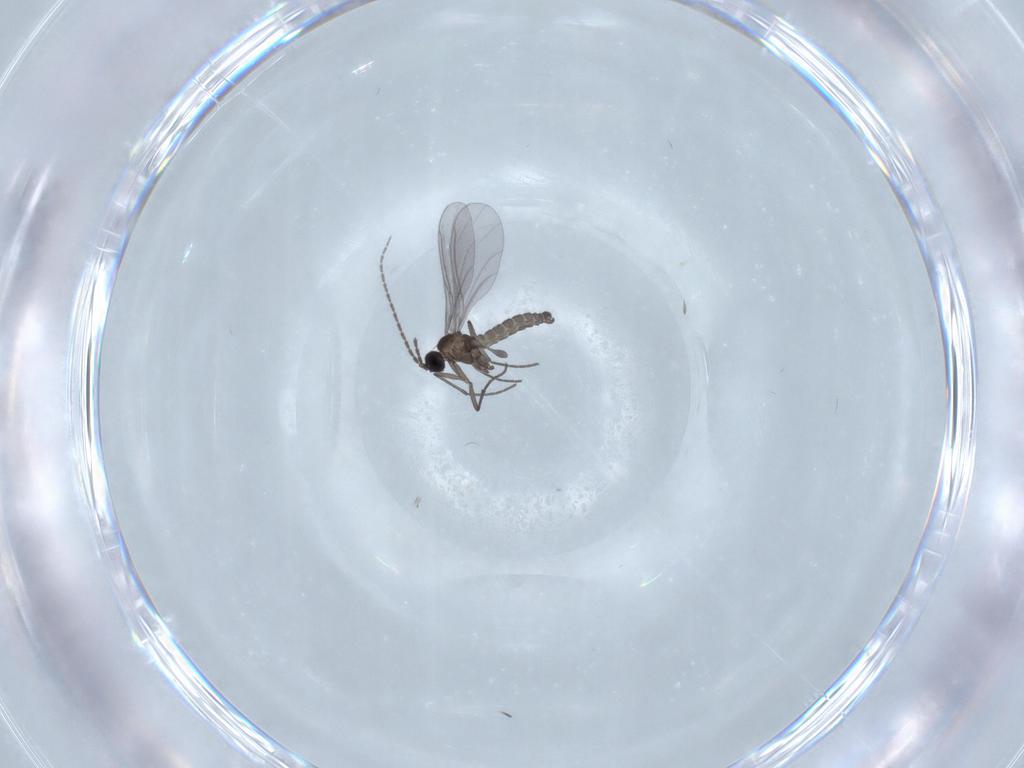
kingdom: Animalia
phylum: Arthropoda
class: Insecta
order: Diptera
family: Sciaridae
